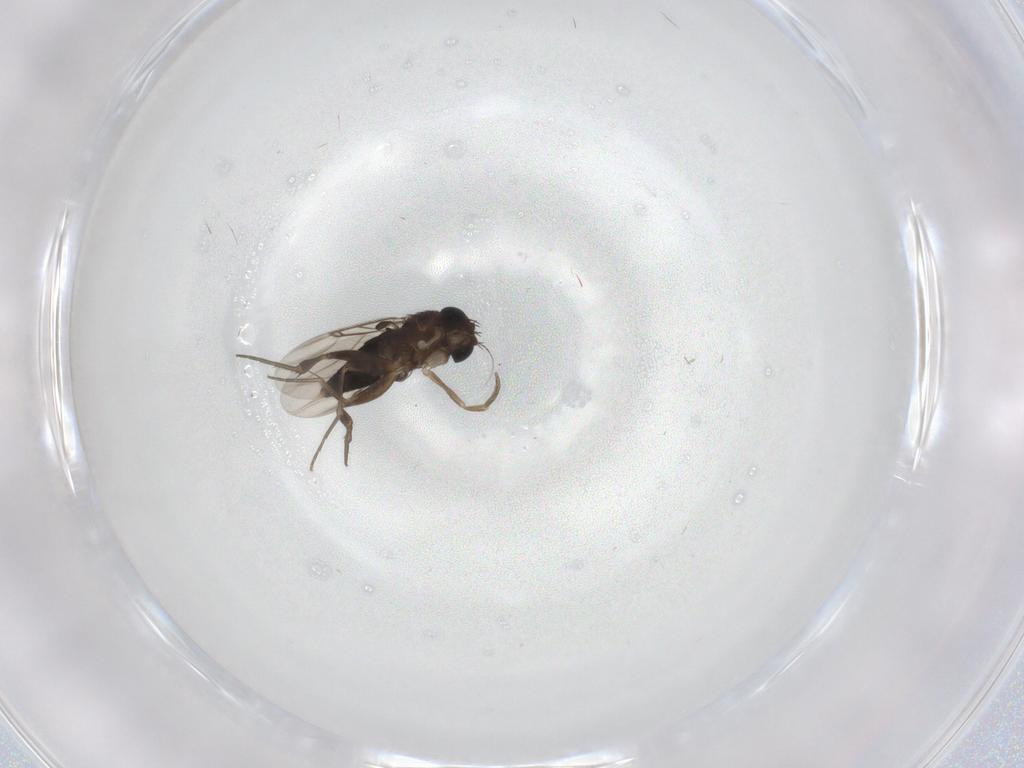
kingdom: Animalia
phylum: Arthropoda
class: Insecta
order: Diptera
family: Phoridae
